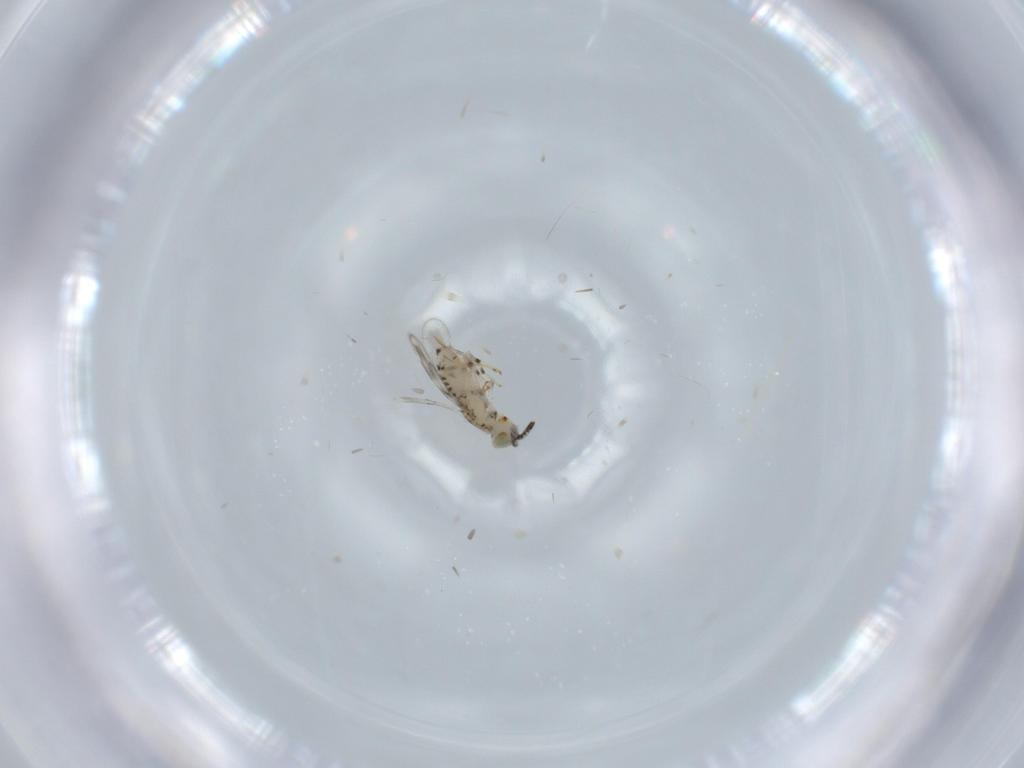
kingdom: Animalia
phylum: Arthropoda
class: Insecta
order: Hymenoptera
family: Aphelinidae
